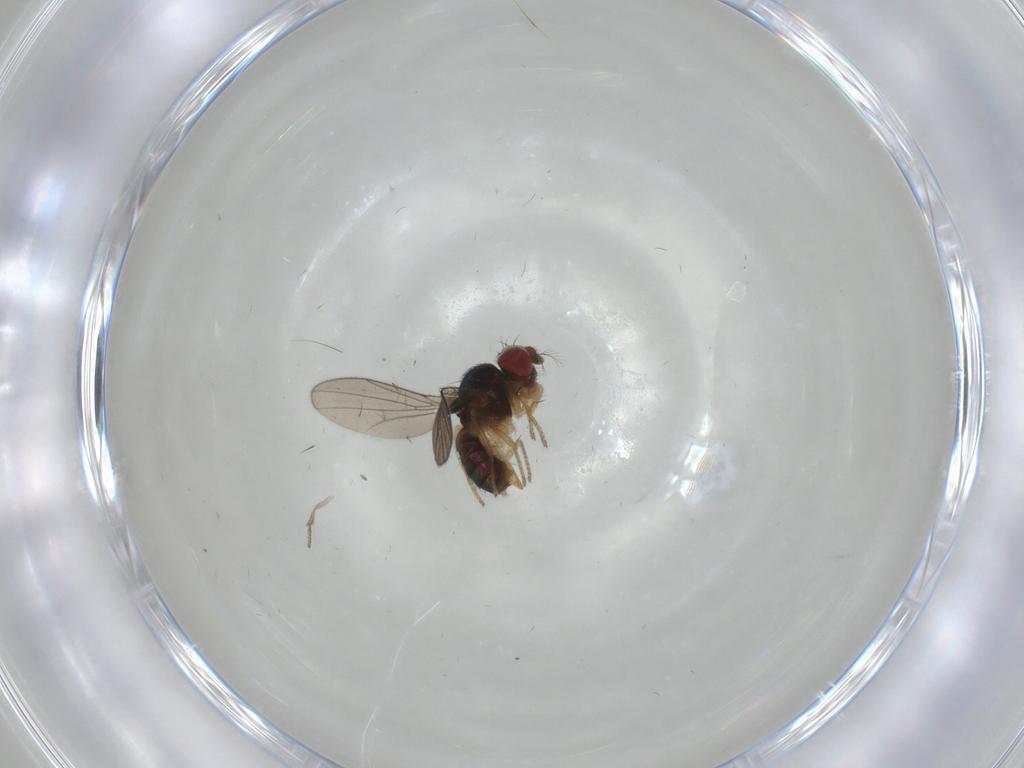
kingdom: Animalia
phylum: Arthropoda
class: Insecta
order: Diptera
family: Drosophilidae
